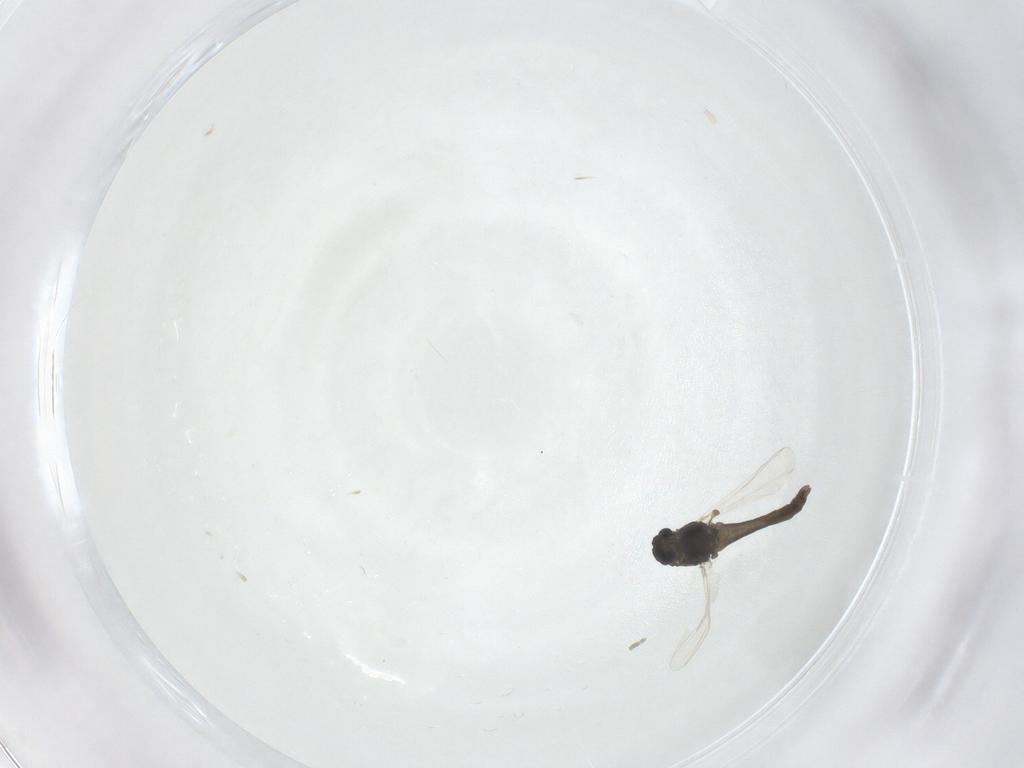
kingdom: Animalia
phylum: Arthropoda
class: Insecta
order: Diptera
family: Chironomidae
